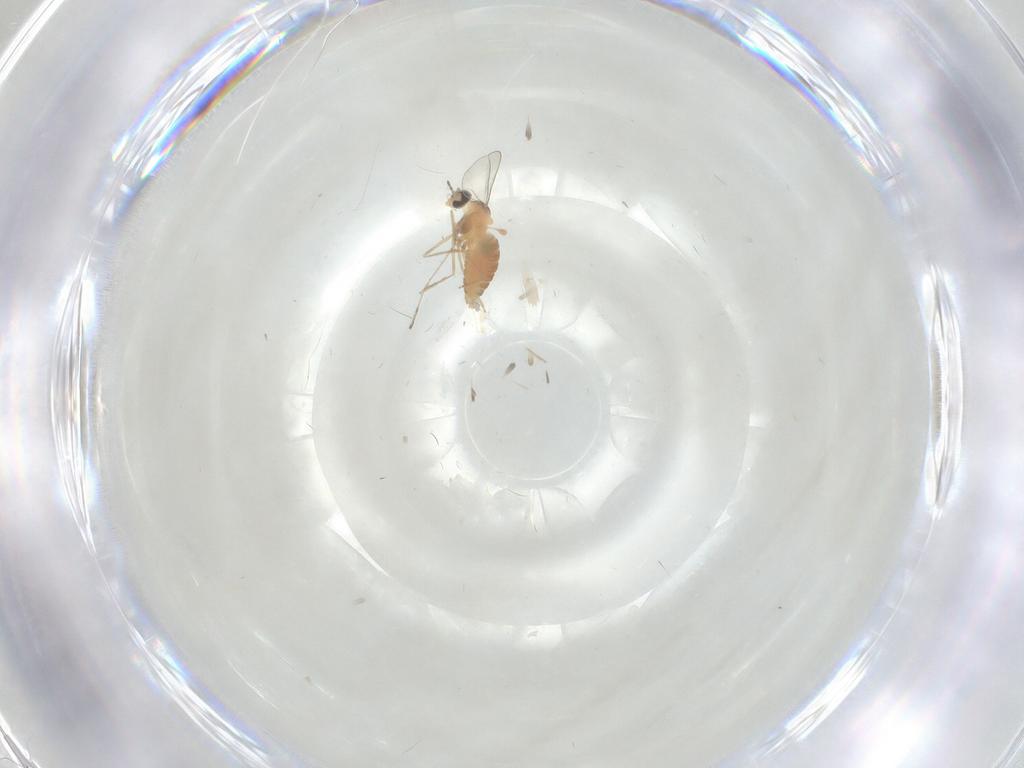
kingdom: Animalia
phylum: Arthropoda
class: Insecta
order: Diptera
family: Cecidomyiidae
